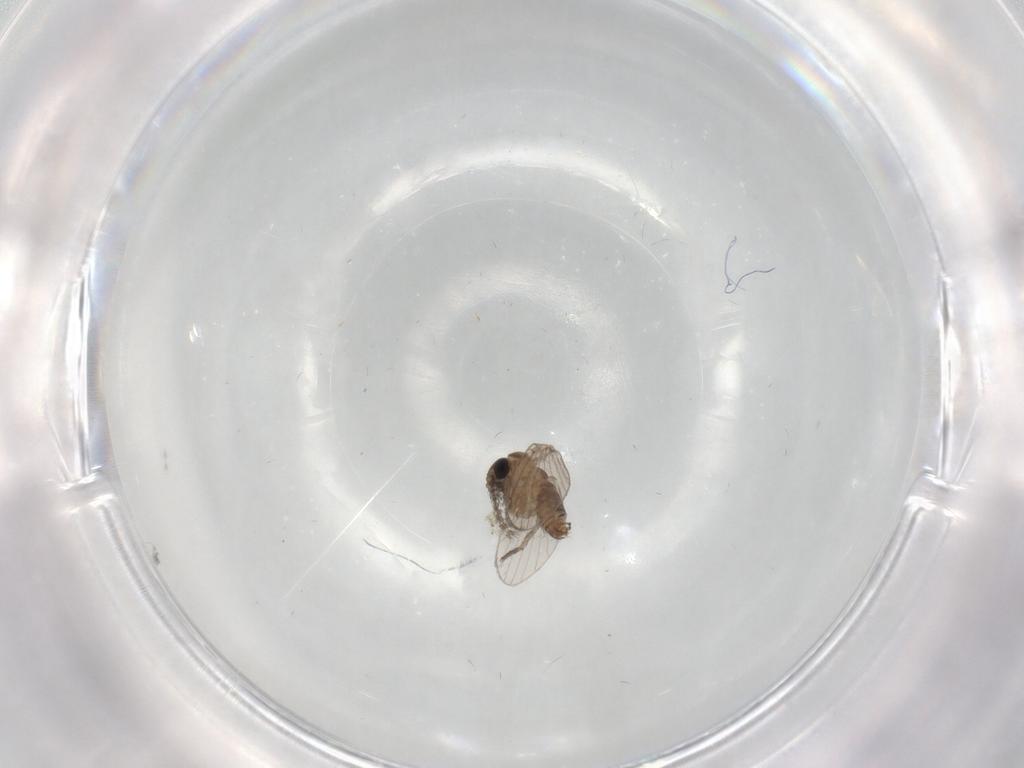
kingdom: Animalia
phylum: Arthropoda
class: Insecta
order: Diptera
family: Psychodidae
